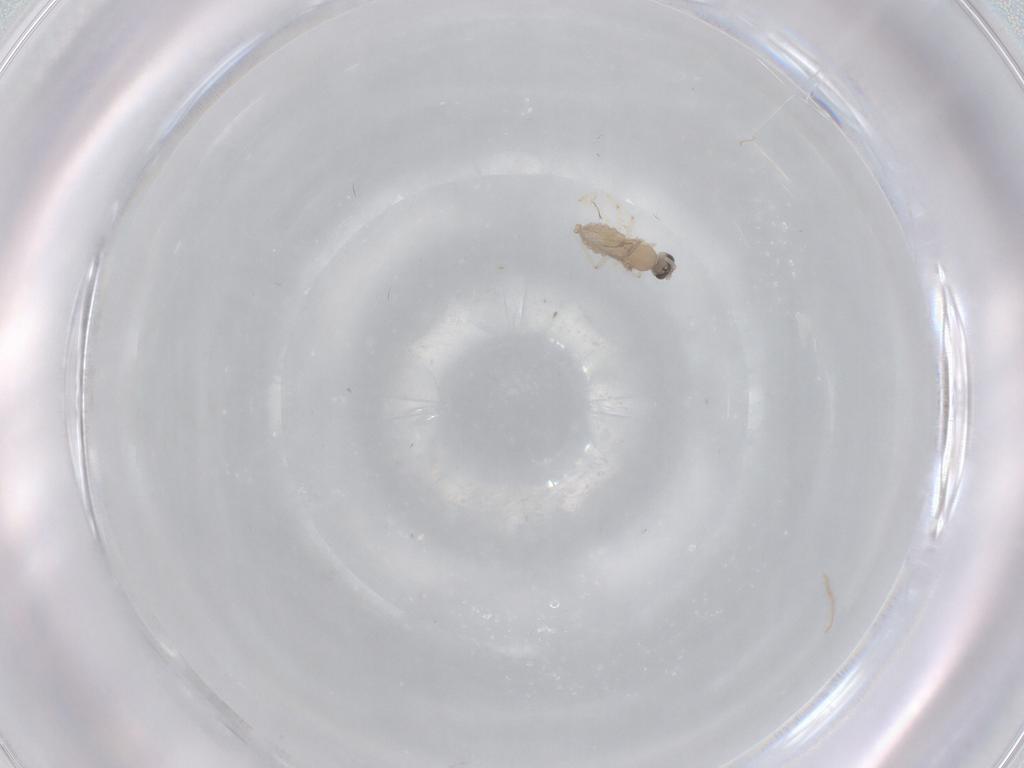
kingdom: Animalia
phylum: Arthropoda
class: Insecta
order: Diptera
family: Cecidomyiidae
